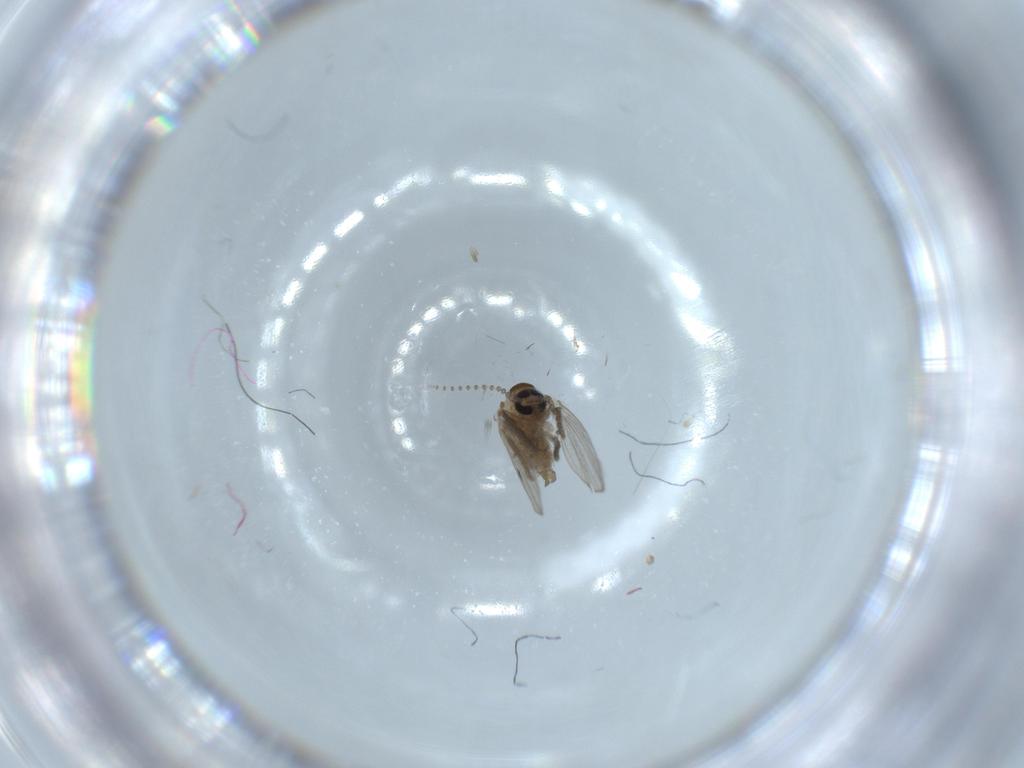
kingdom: Animalia
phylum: Arthropoda
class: Insecta
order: Diptera
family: Psychodidae
